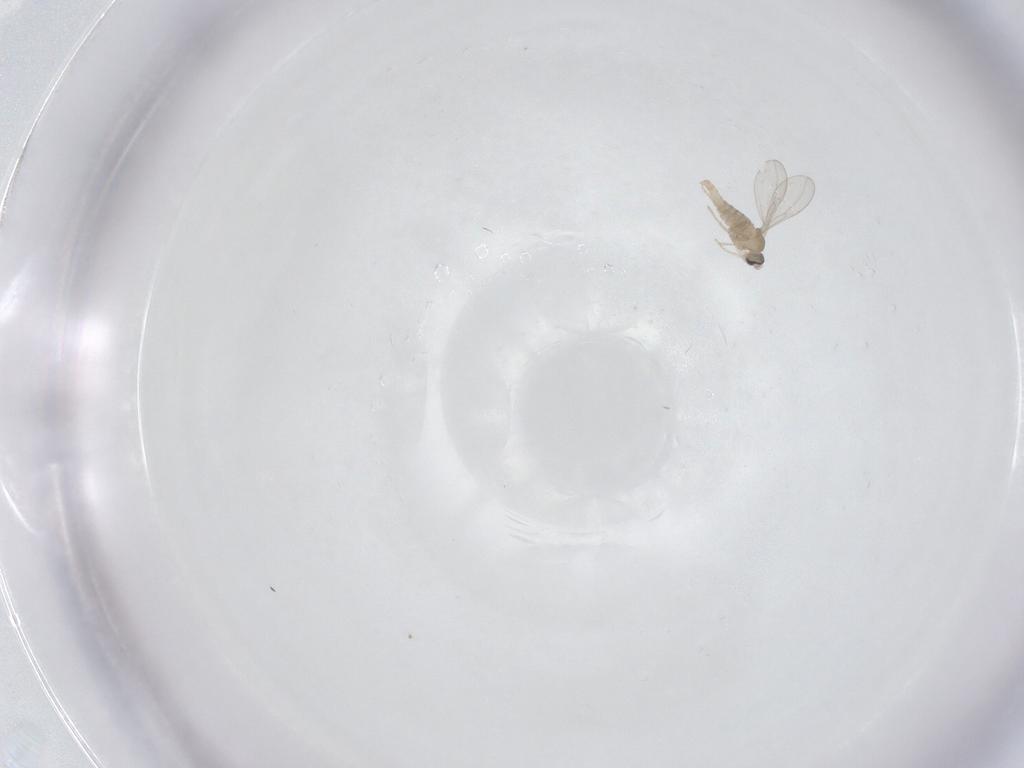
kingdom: Animalia
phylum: Arthropoda
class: Insecta
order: Diptera
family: Cecidomyiidae
